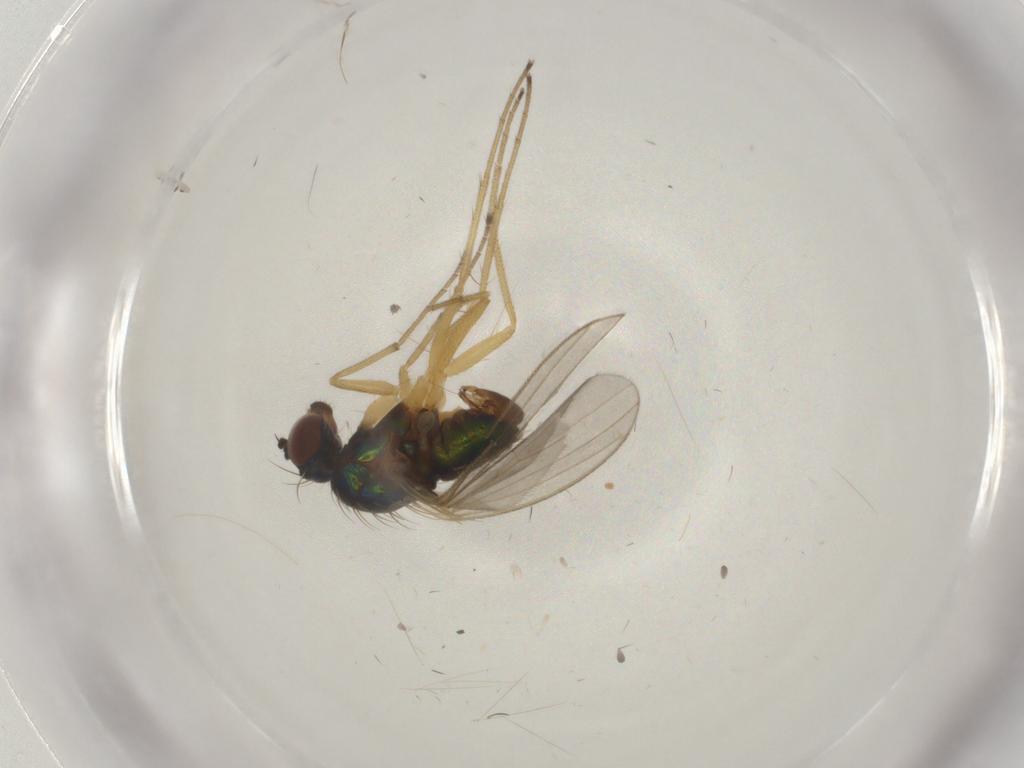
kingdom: Animalia
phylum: Arthropoda
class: Insecta
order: Diptera
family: Dolichopodidae
